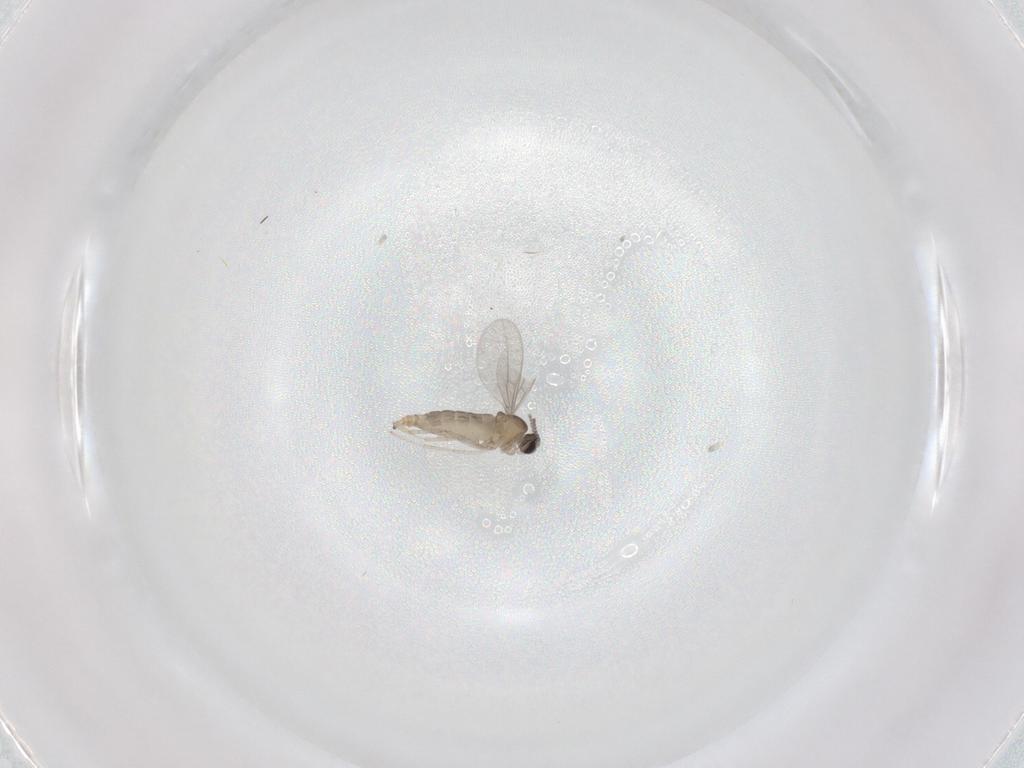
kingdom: Animalia
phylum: Arthropoda
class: Insecta
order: Diptera
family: Cecidomyiidae
